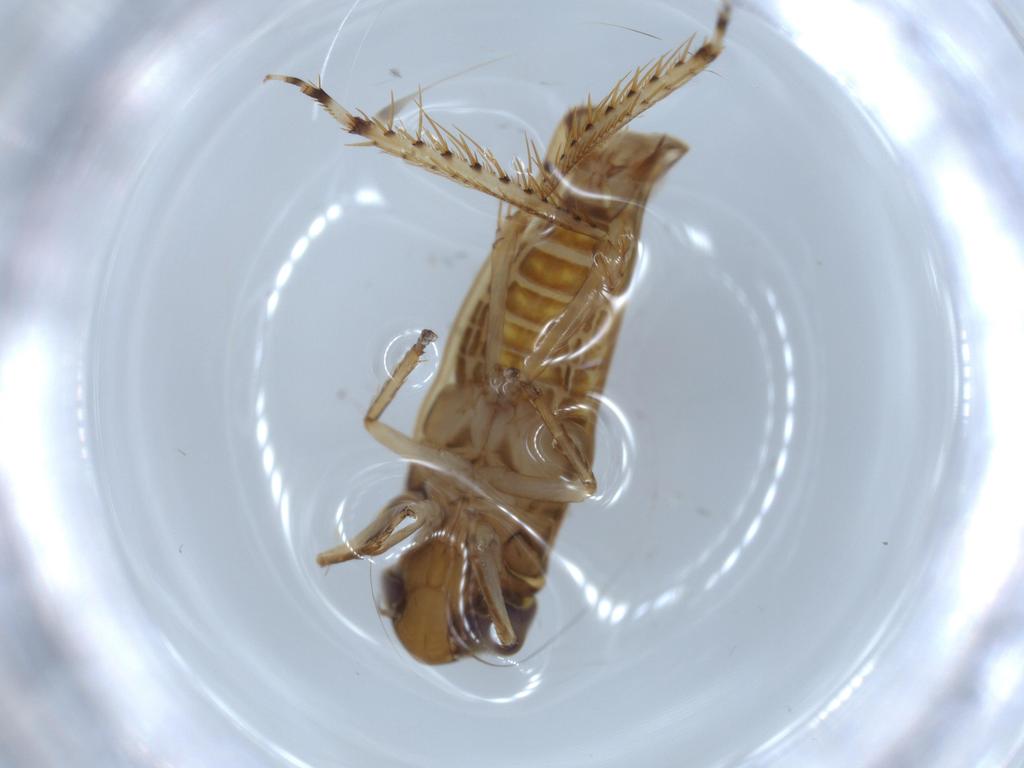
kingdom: Animalia
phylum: Arthropoda
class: Insecta
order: Hemiptera
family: Cicadellidae
